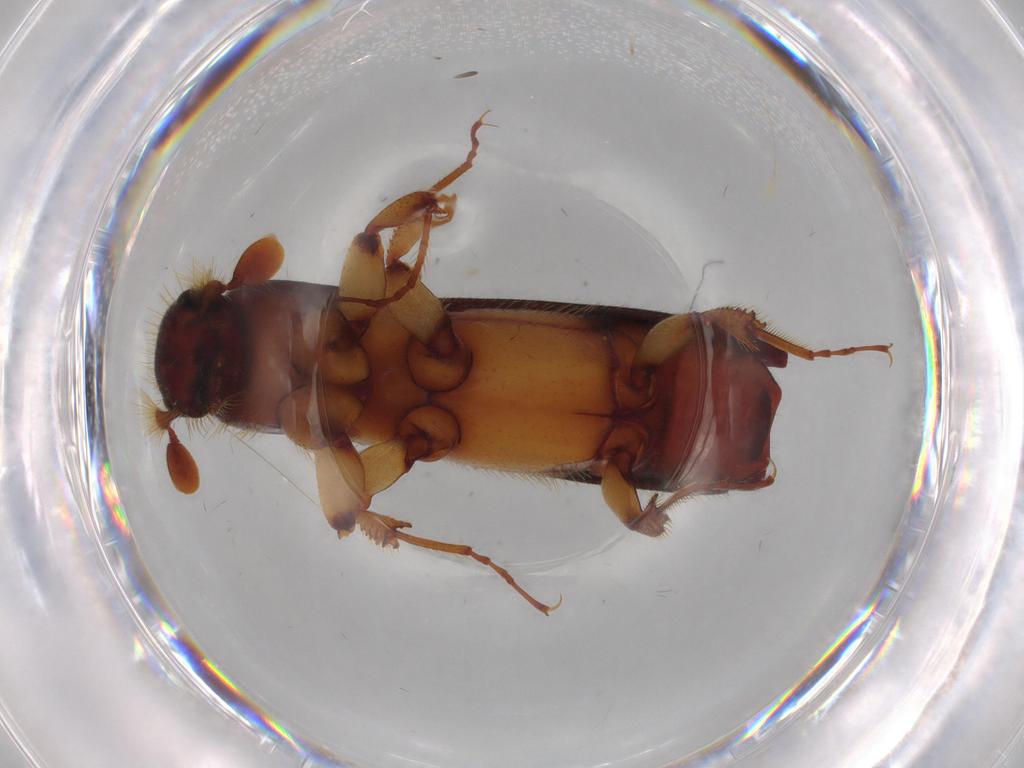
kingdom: Animalia
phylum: Arthropoda
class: Insecta
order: Coleoptera
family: Curculionidae
